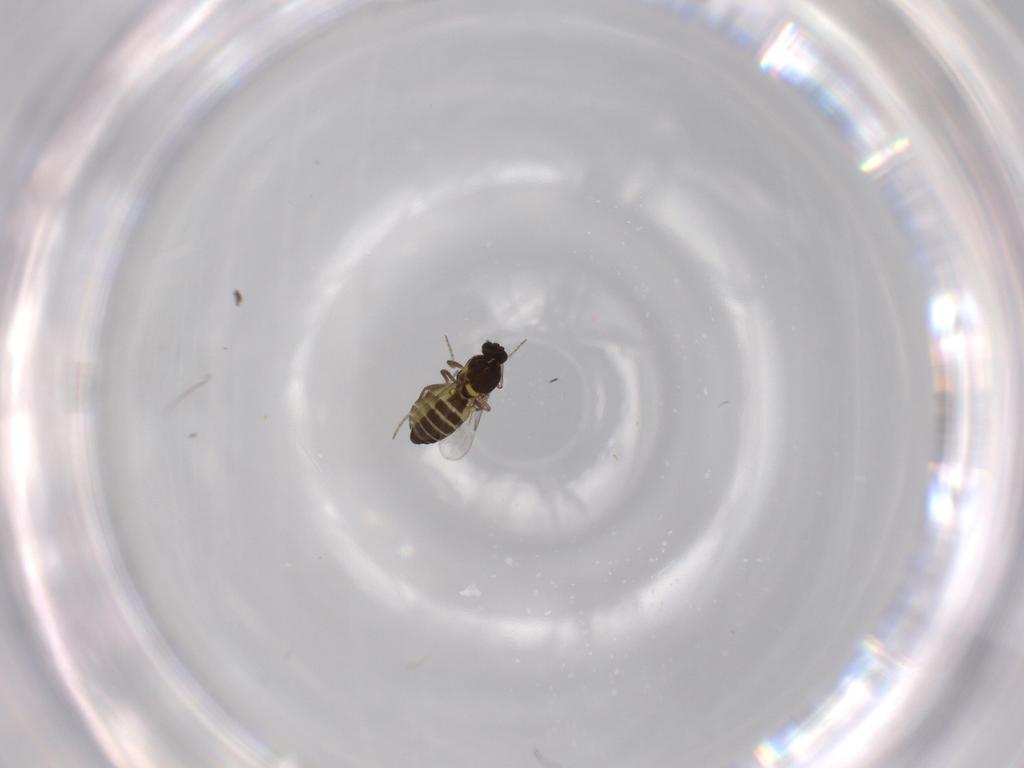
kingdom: Animalia
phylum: Arthropoda
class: Insecta
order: Diptera
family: Ceratopogonidae
